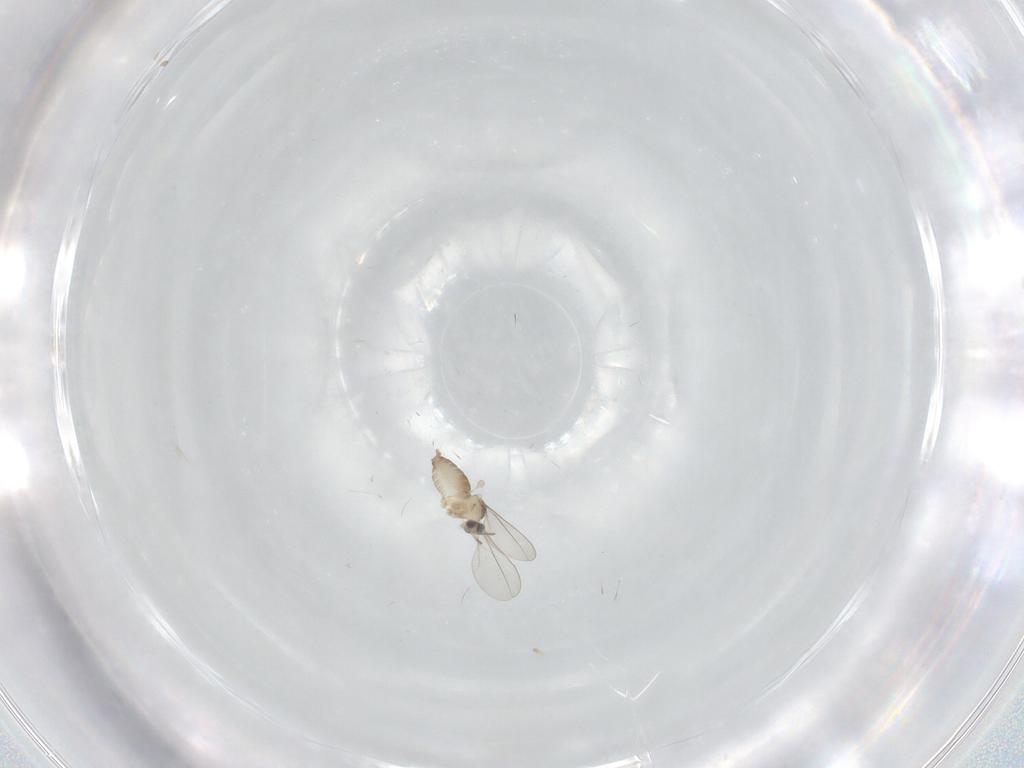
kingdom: Animalia
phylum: Arthropoda
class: Insecta
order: Diptera
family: Cecidomyiidae
